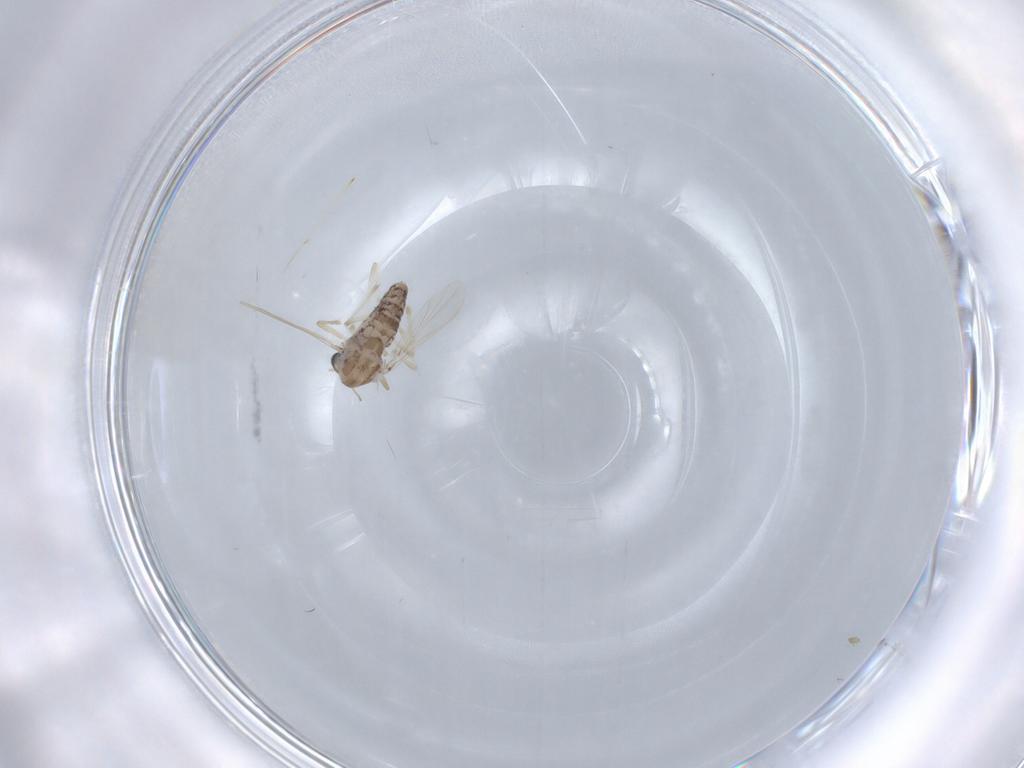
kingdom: Animalia
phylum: Arthropoda
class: Insecta
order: Diptera
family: Chironomidae
